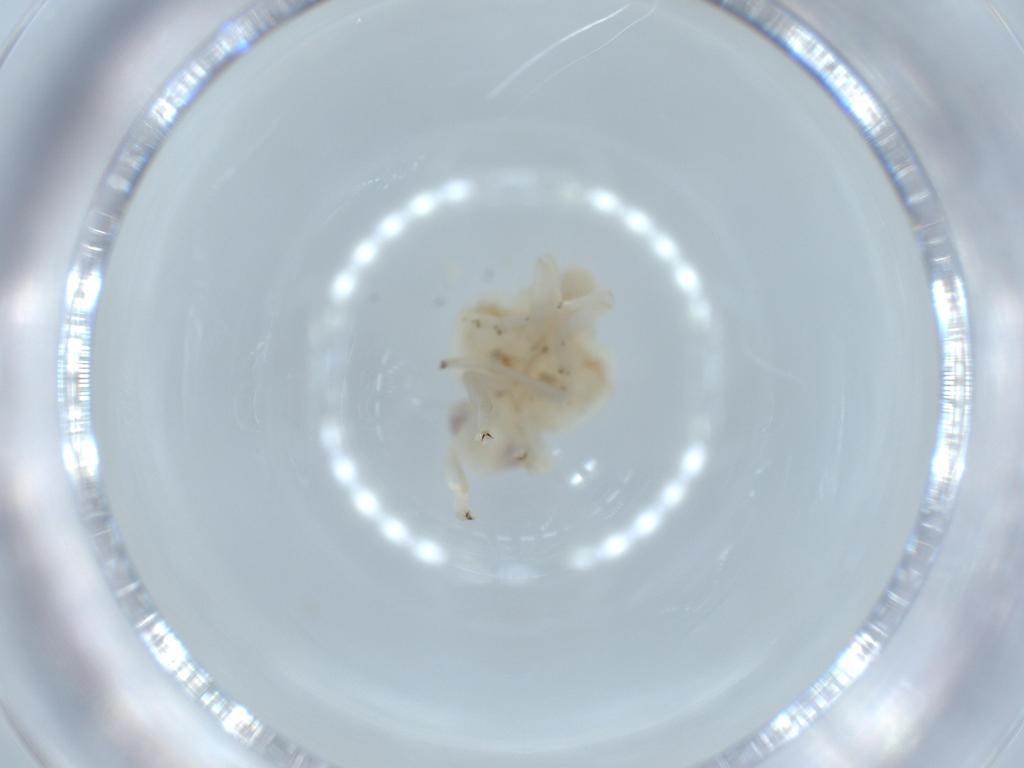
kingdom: Animalia
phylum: Arthropoda
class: Insecta
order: Hemiptera
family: Nogodinidae
